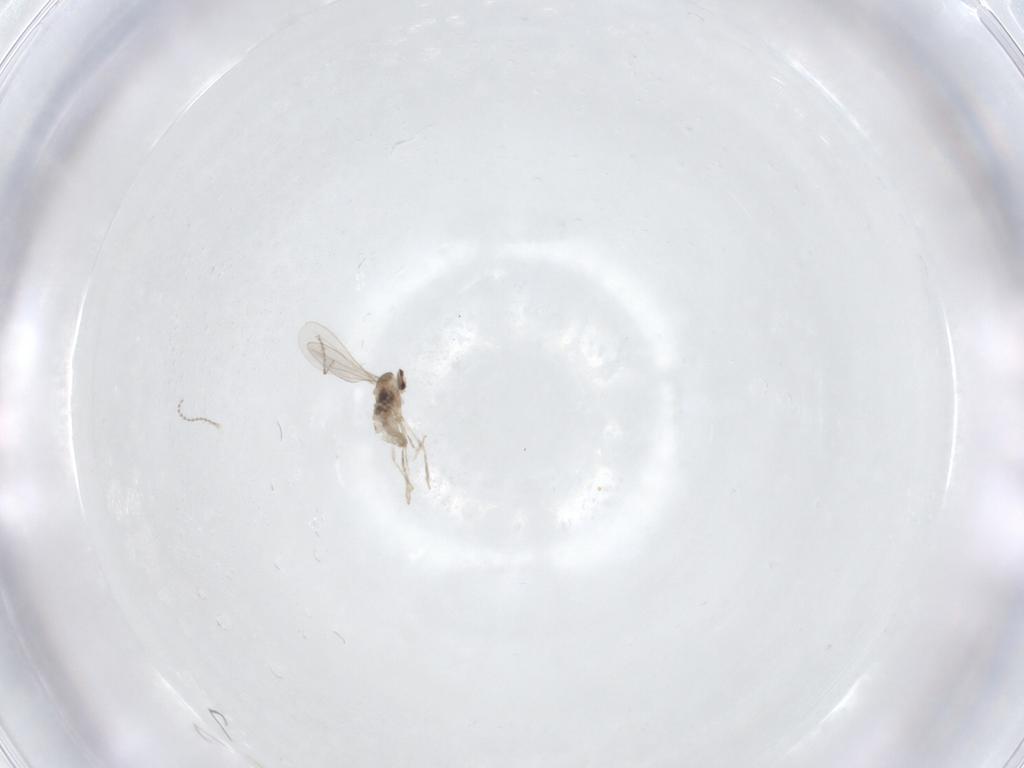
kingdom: Animalia
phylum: Arthropoda
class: Insecta
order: Diptera
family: Cecidomyiidae
